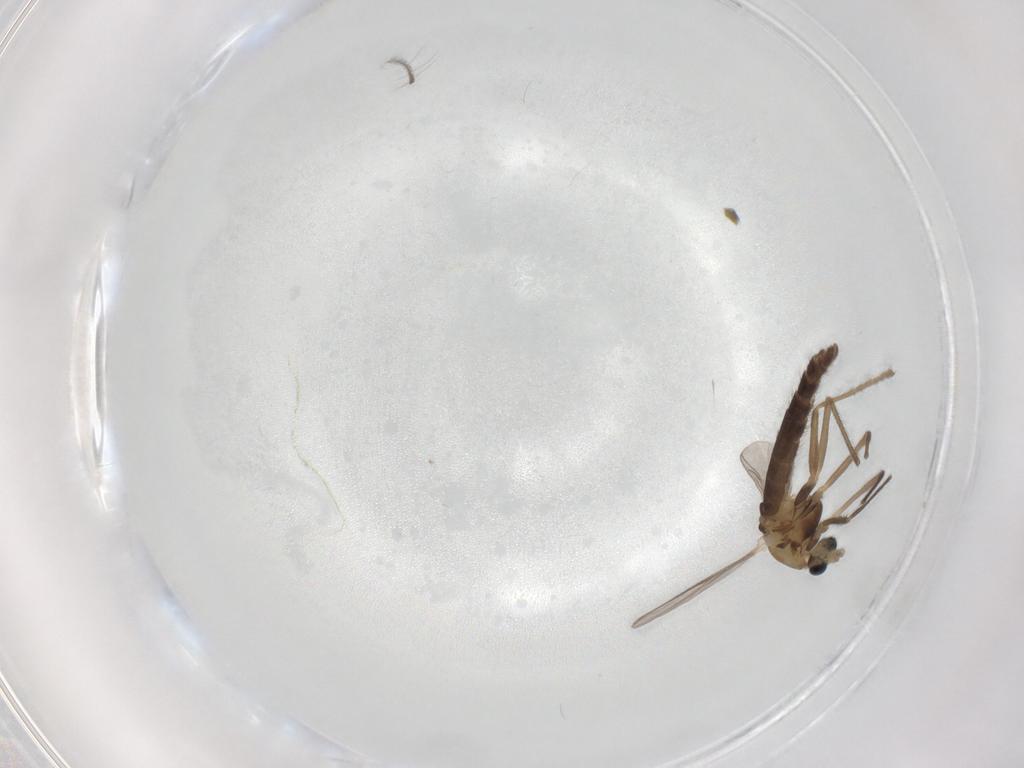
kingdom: Animalia
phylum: Arthropoda
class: Insecta
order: Diptera
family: Chironomidae
